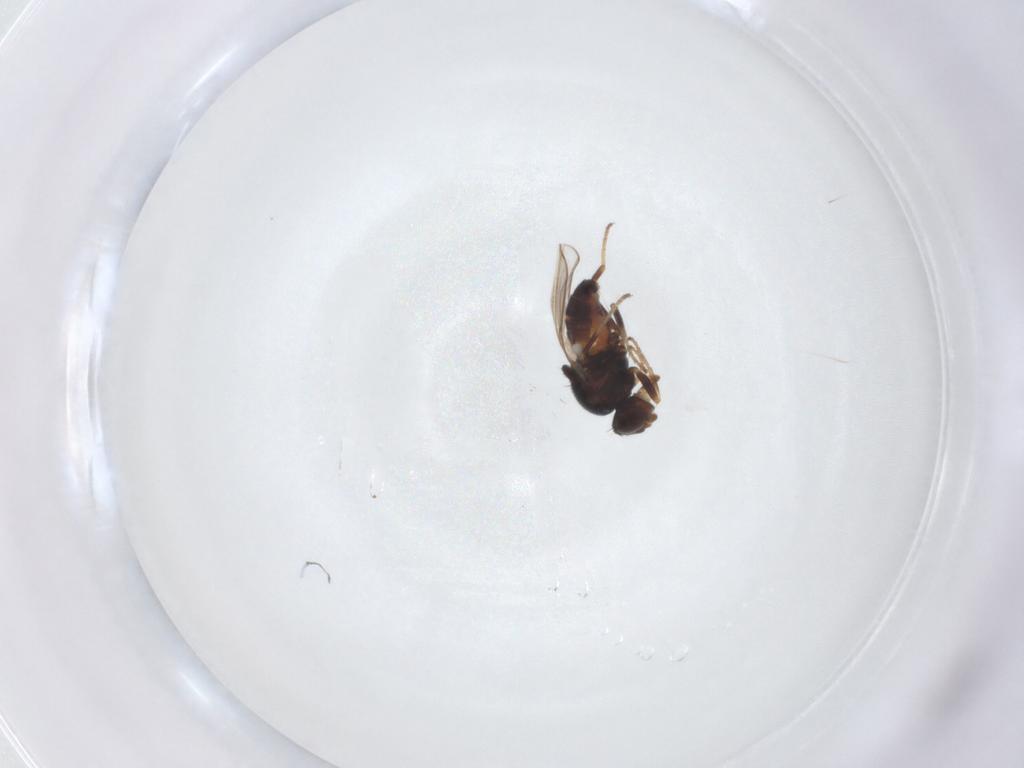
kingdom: Animalia
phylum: Arthropoda
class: Insecta
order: Diptera
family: Chloropidae
